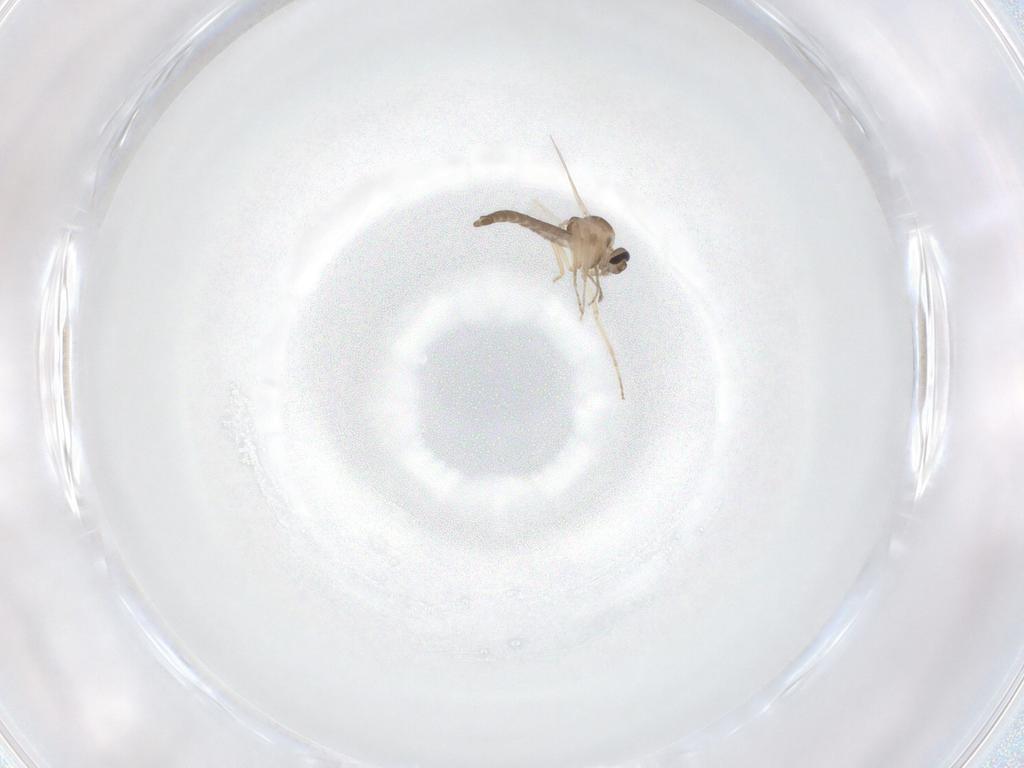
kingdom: Animalia
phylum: Arthropoda
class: Insecta
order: Diptera
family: Ceratopogonidae
